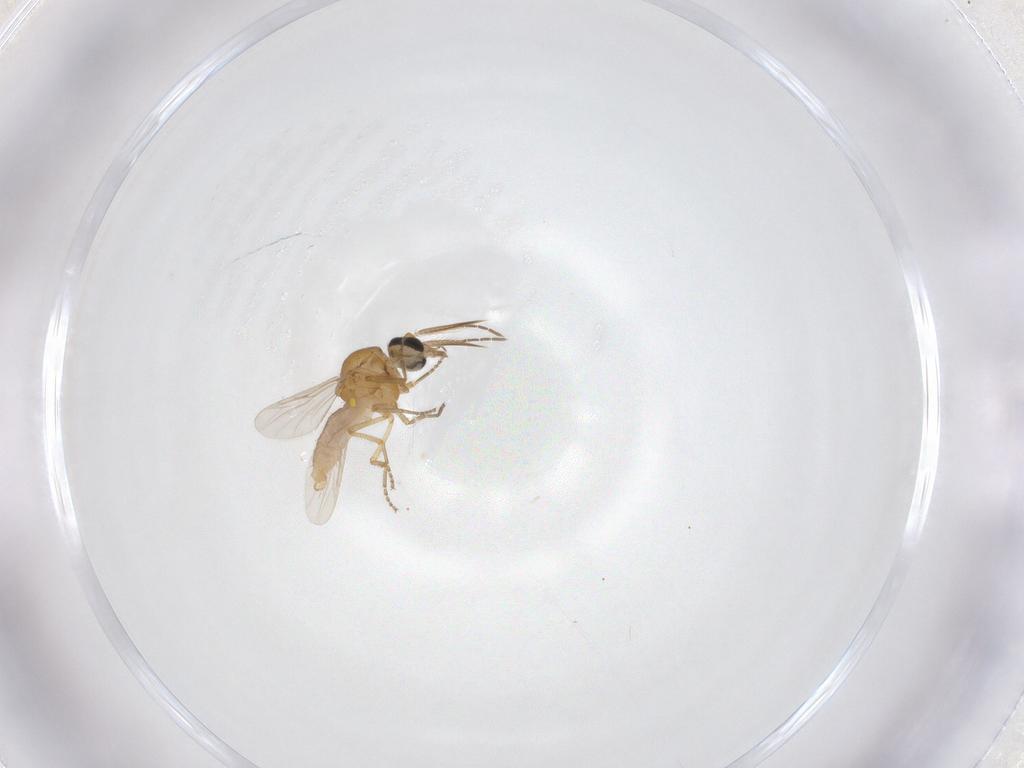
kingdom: Animalia
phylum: Arthropoda
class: Insecta
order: Diptera
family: Ceratopogonidae
